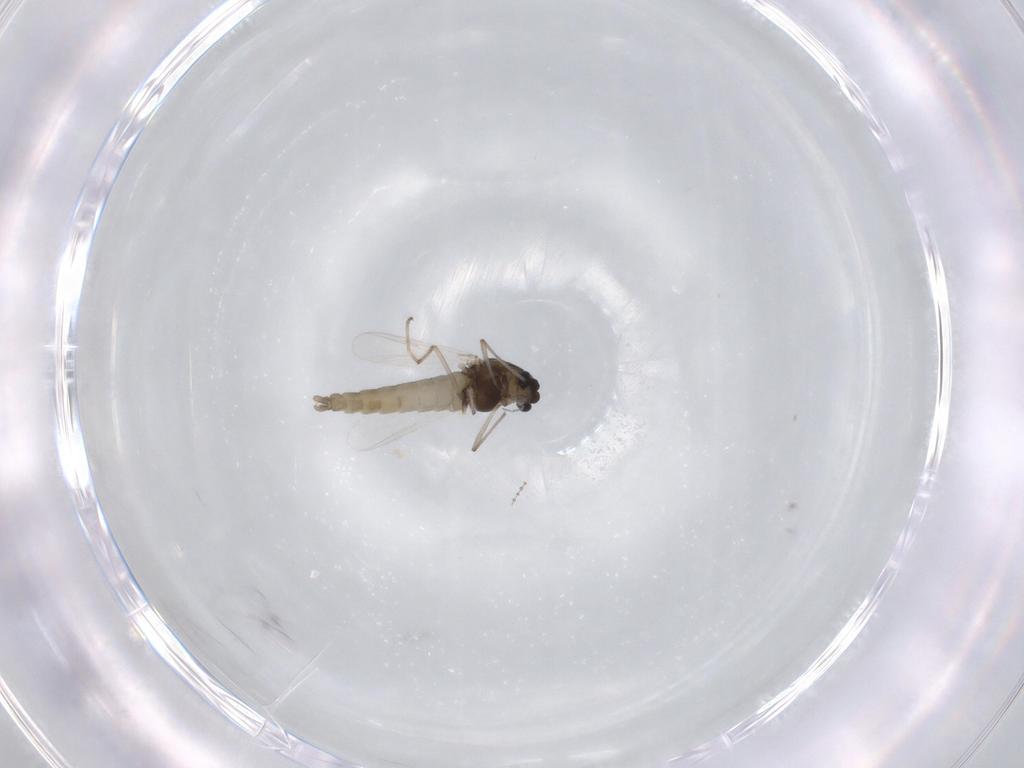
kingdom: Animalia
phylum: Arthropoda
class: Insecta
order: Diptera
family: Chironomidae
